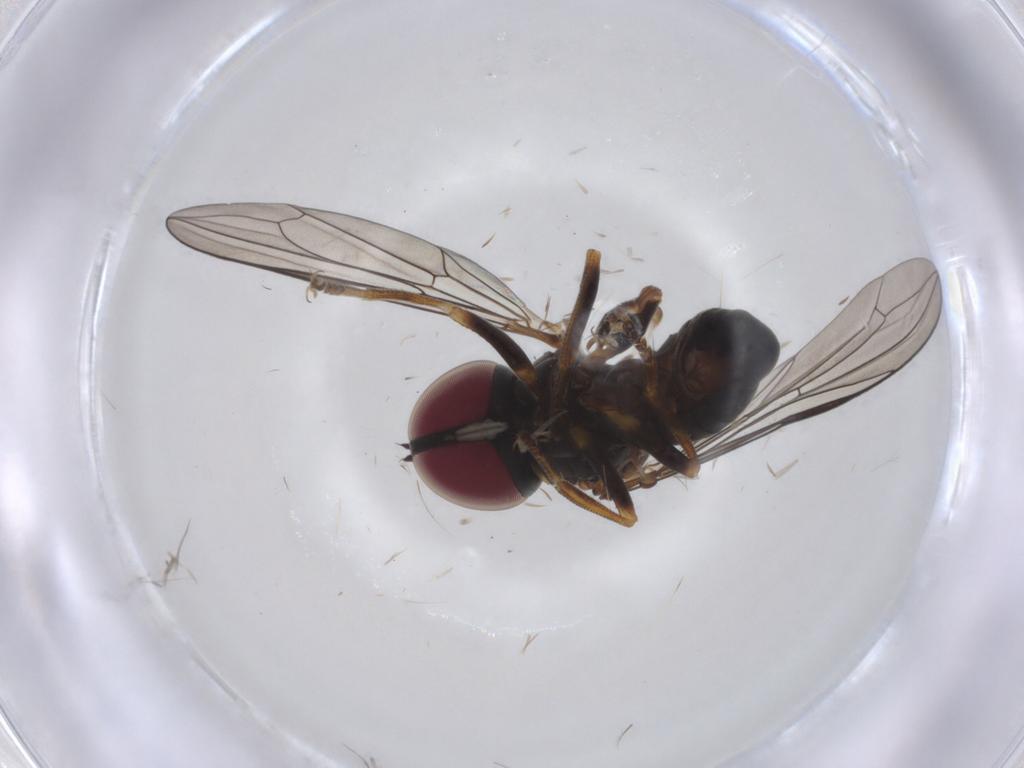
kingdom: Animalia
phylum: Arthropoda
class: Insecta
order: Diptera
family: Pipunculidae
